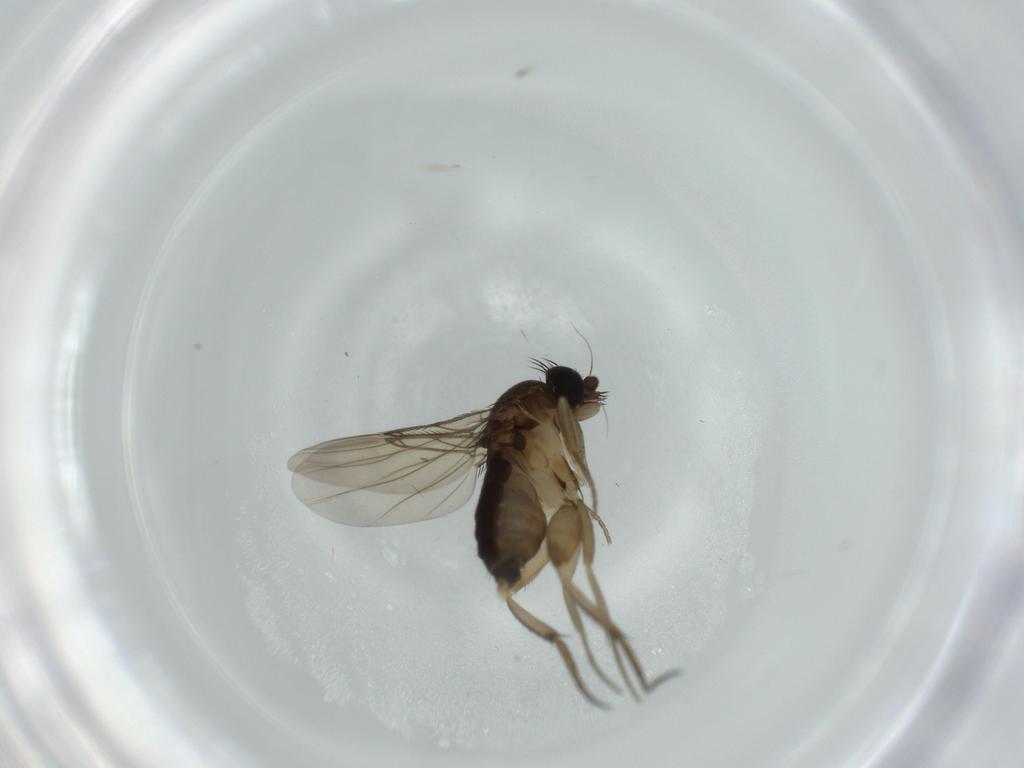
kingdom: Animalia
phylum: Arthropoda
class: Insecta
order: Diptera
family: Phoridae
